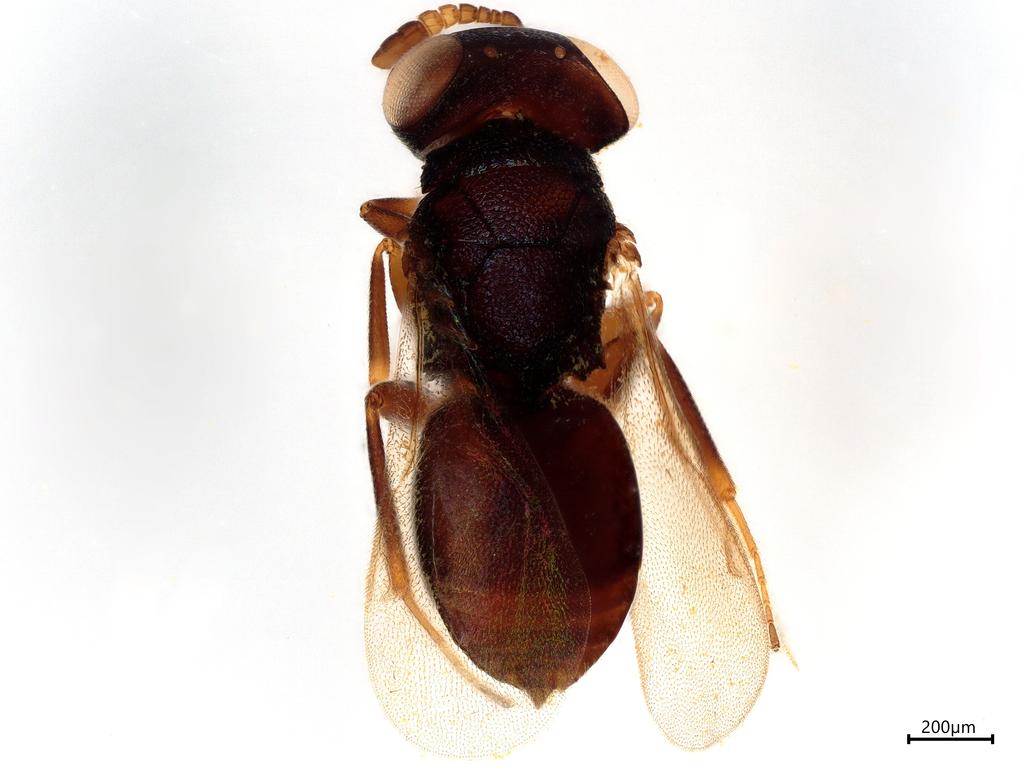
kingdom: Animalia
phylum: Arthropoda
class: Insecta
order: Hymenoptera
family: Pteromalidae
